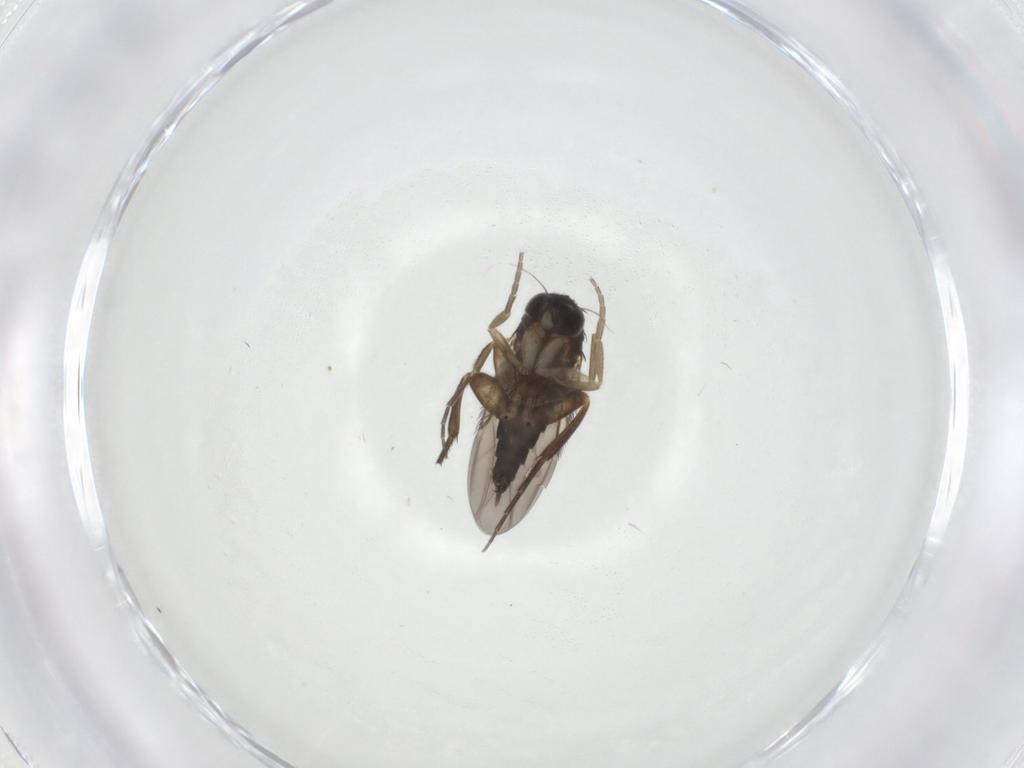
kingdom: Animalia
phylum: Arthropoda
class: Insecta
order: Diptera
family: Phoridae
